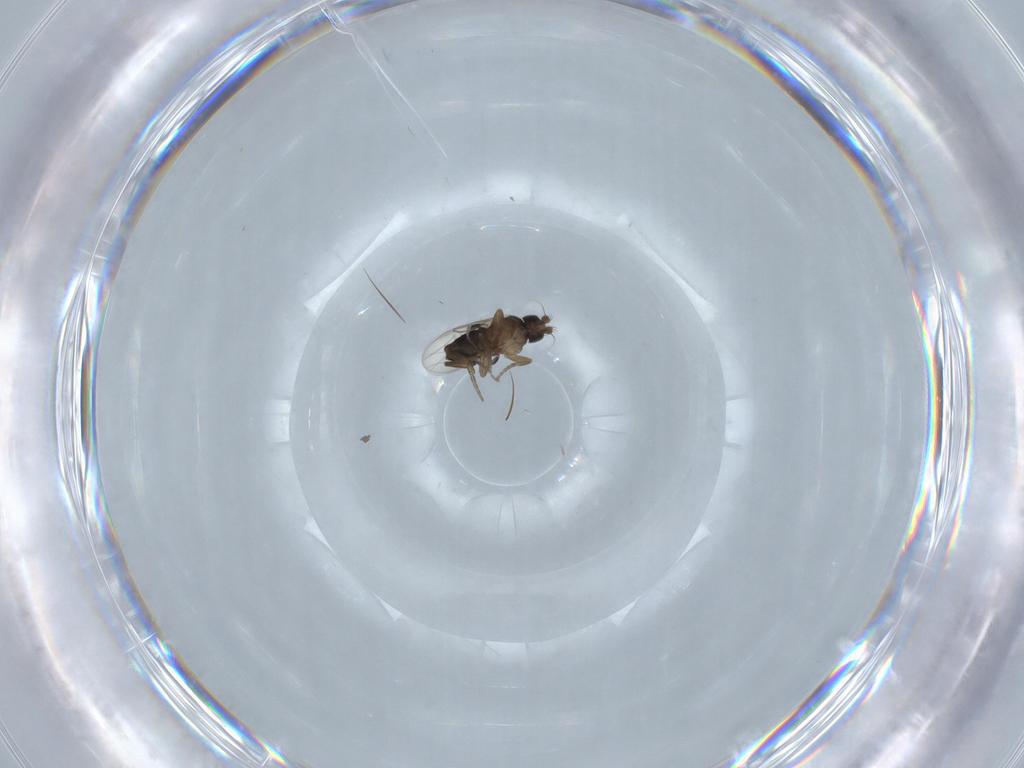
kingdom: Animalia
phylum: Arthropoda
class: Insecta
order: Diptera
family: Phoridae
